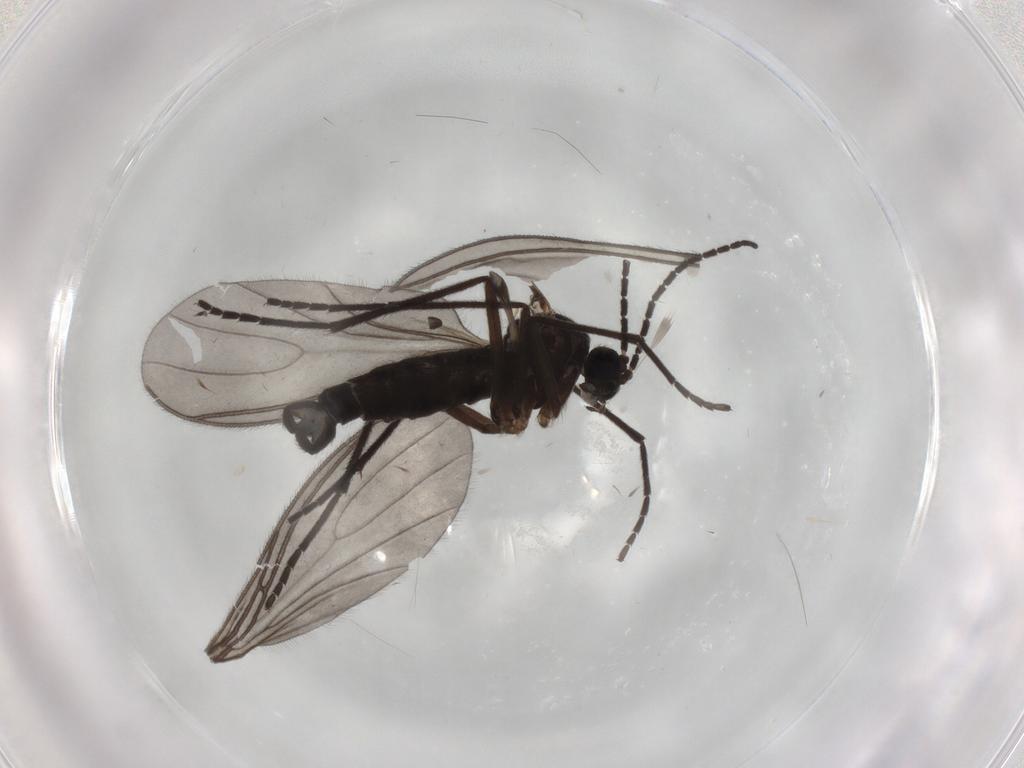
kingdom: Animalia
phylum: Arthropoda
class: Insecta
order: Diptera
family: Sciaridae
